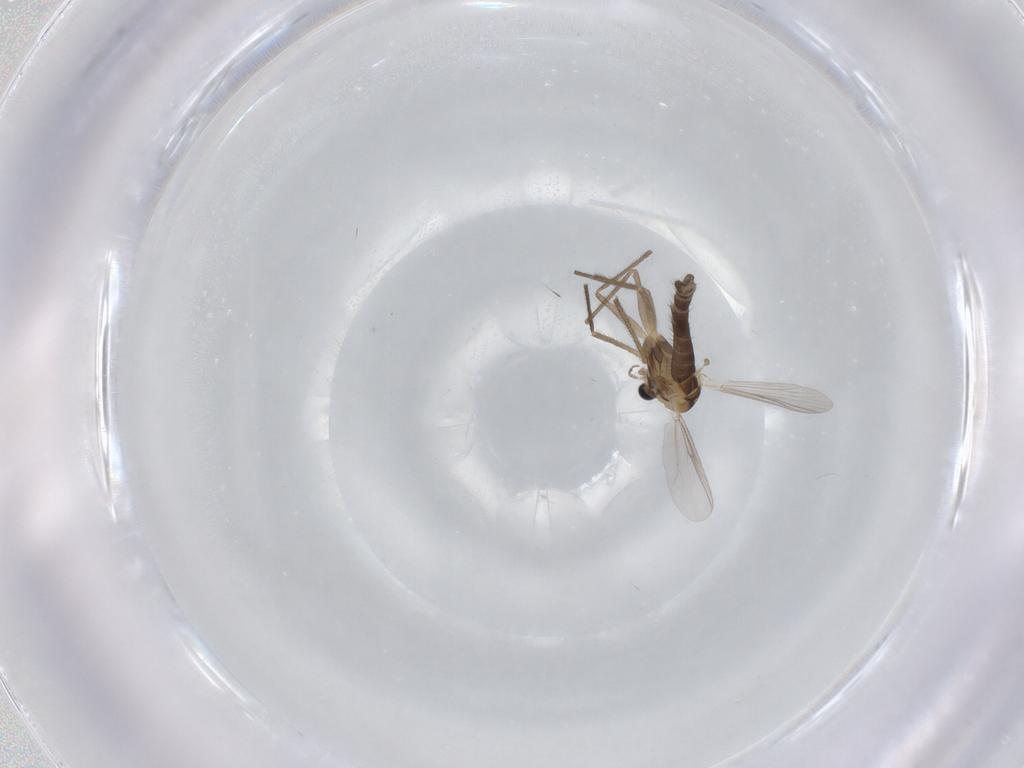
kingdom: Animalia
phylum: Arthropoda
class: Insecta
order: Diptera
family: Chironomidae
